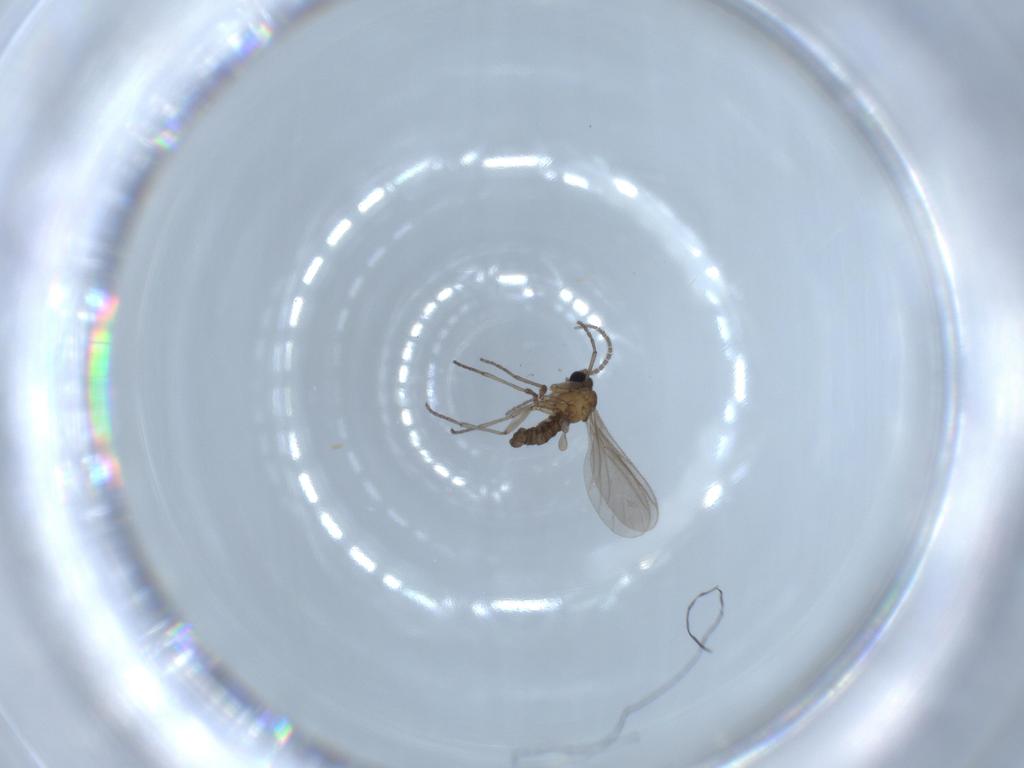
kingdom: Animalia
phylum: Arthropoda
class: Insecta
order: Diptera
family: Sciaridae
